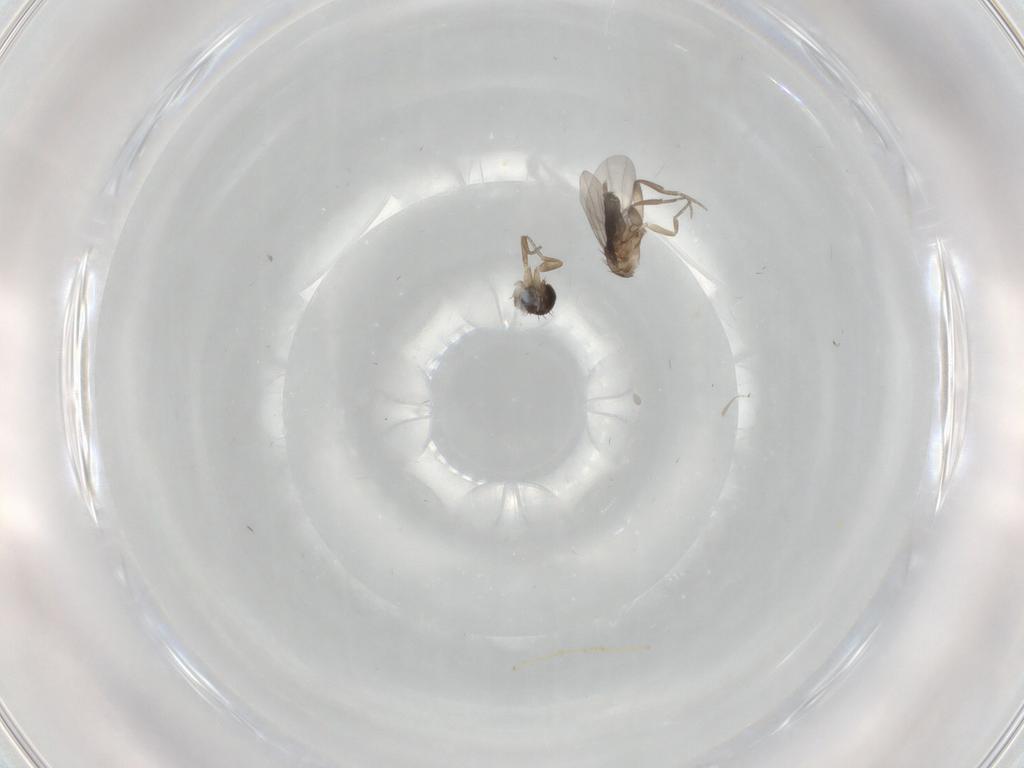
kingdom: Animalia
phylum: Arthropoda
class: Insecta
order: Diptera
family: Phoridae
